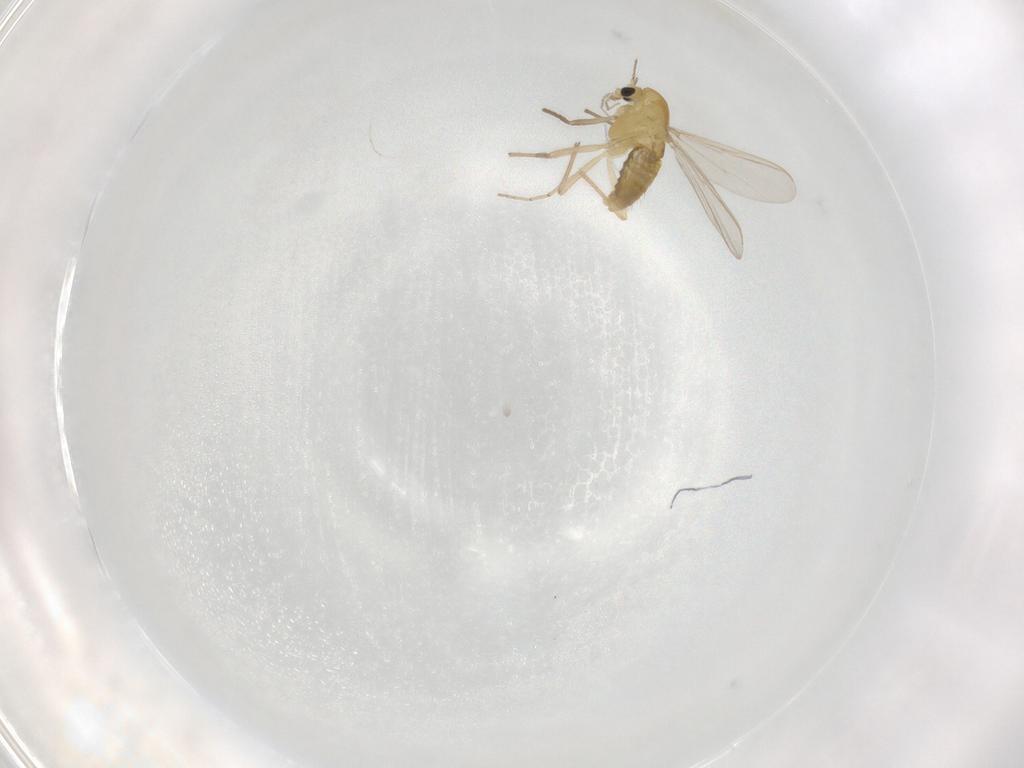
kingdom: Animalia
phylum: Arthropoda
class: Insecta
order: Diptera
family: Chironomidae
